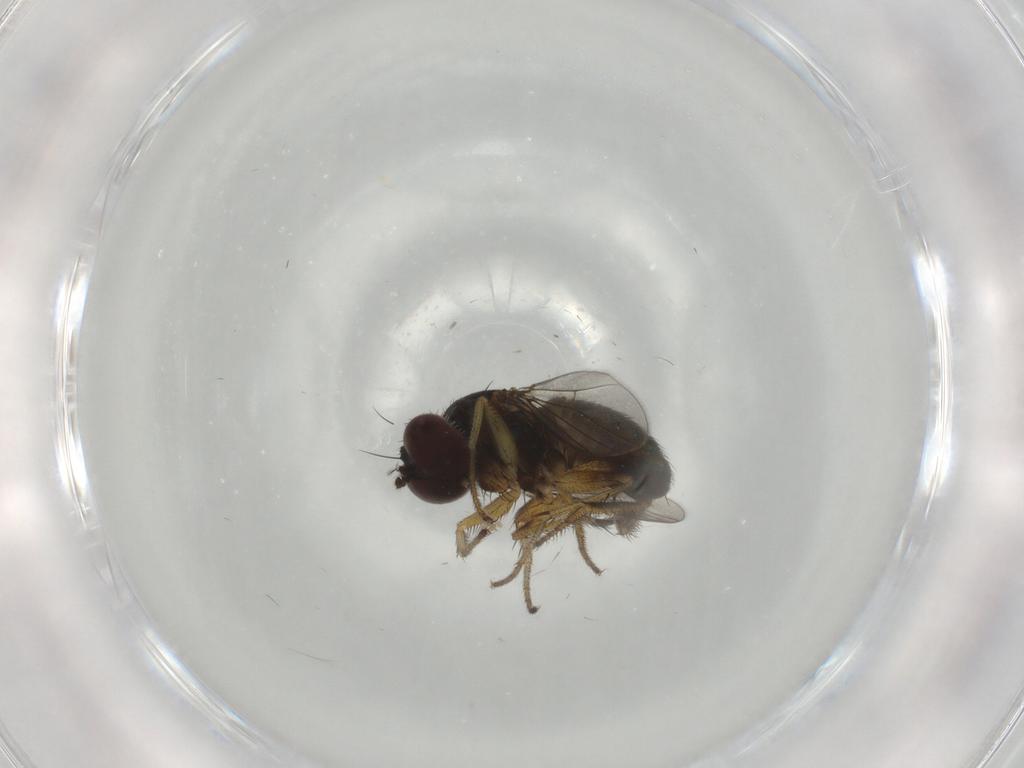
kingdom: Animalia
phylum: Arthropoda
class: Insecta
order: Diptera
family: Dolichopodidae
